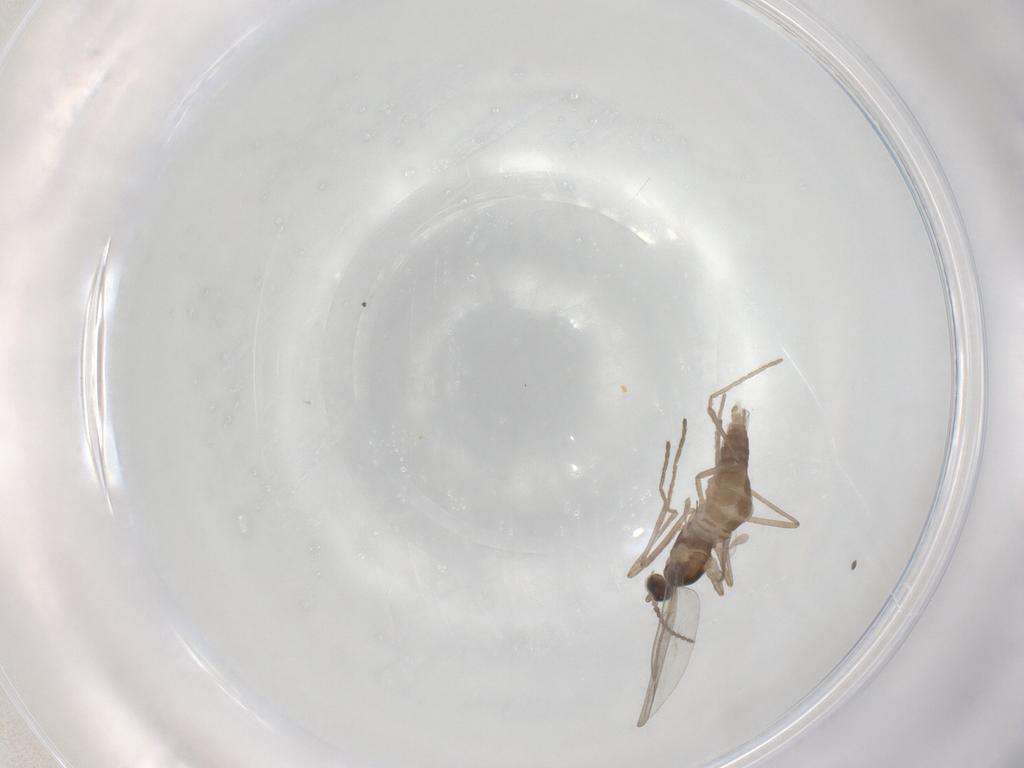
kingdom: Animalia
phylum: Arthropoda
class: Insecta
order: Diptera
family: Cecidomyiidae
